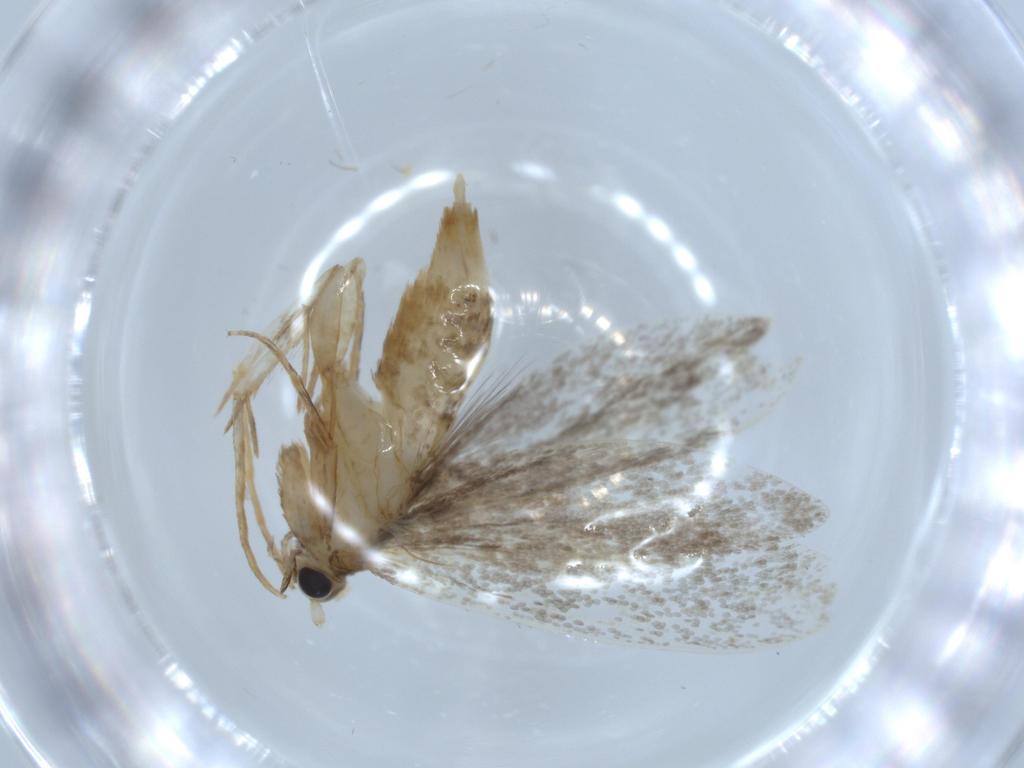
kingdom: Animalia
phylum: Arthropoda
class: Insecta
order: Lepidoptera
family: Tineidae
